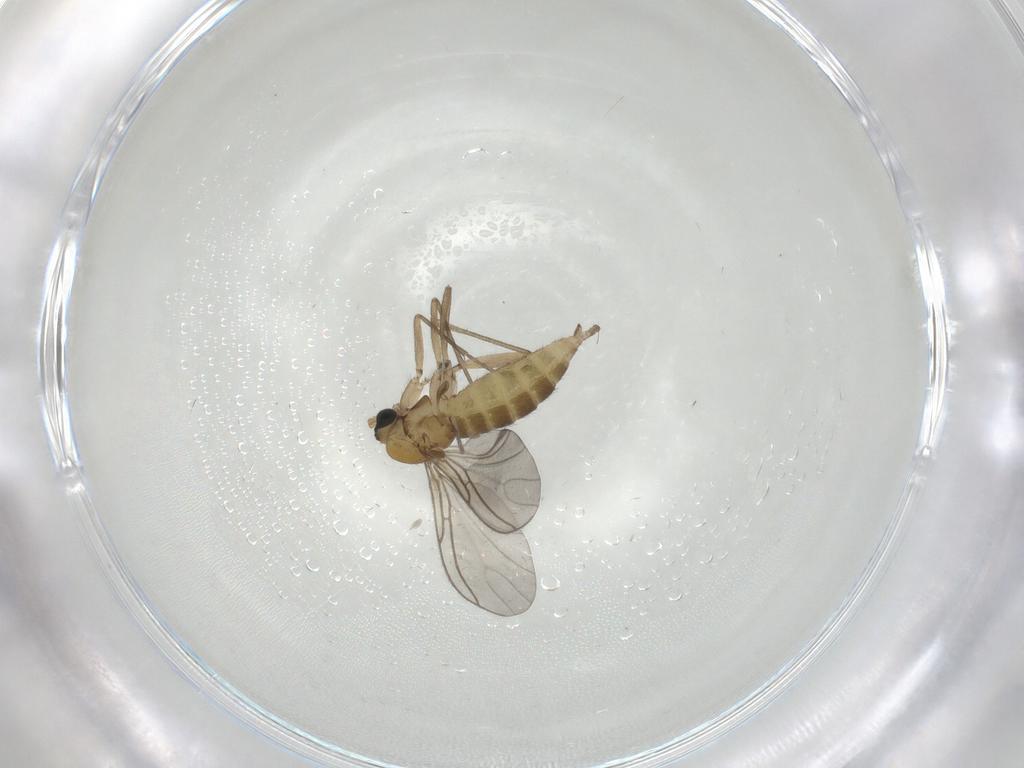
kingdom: Animalia
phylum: Arthropoda
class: Insecta
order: Diptera
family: Sciaridae
